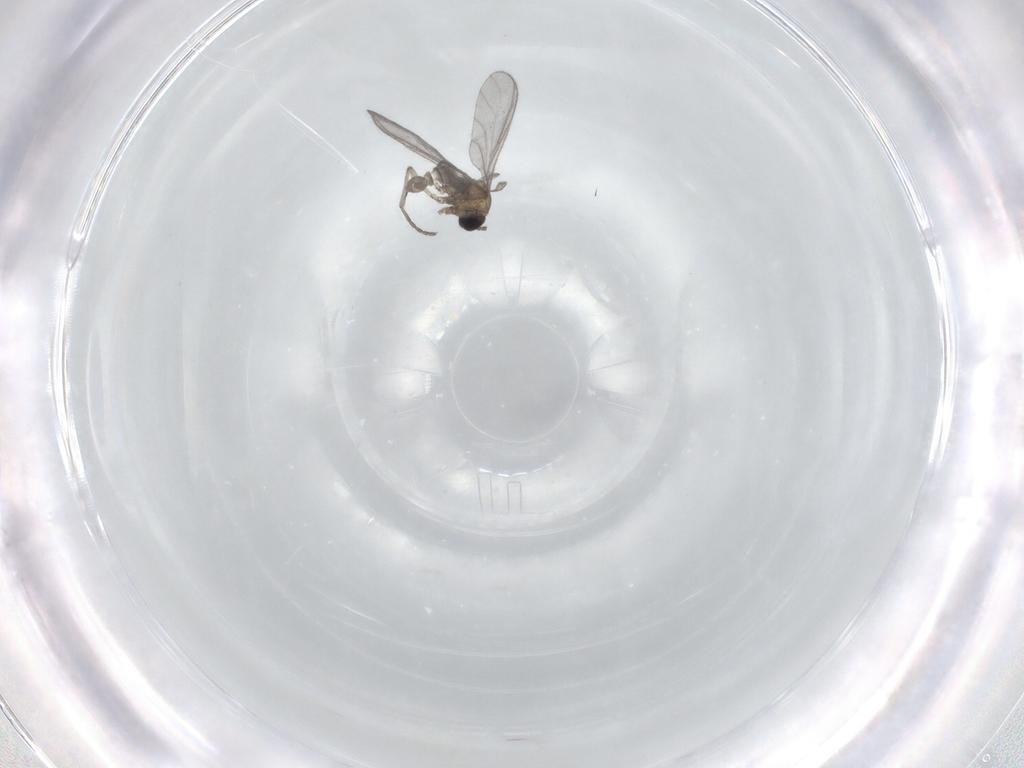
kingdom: Animalia
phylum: Arthropoda
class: Insecta
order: Diptera
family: Sciaridae
